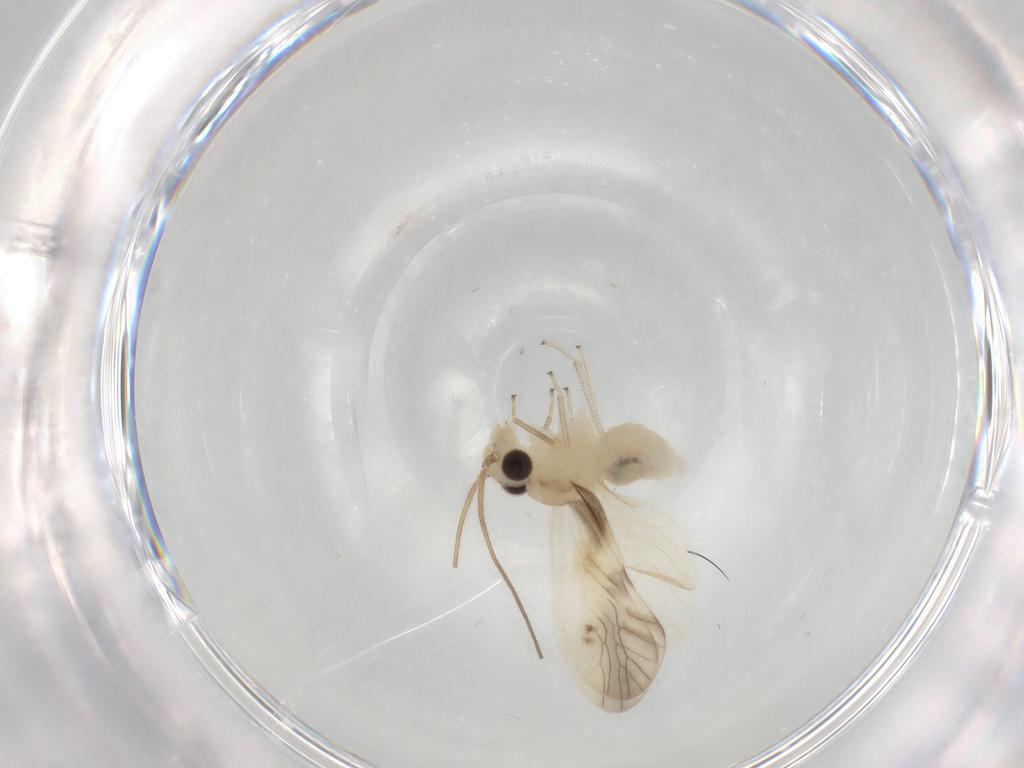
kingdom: Animalia
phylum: Arthropoda
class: Insecta
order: Psocodea
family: Caeciliusidae
